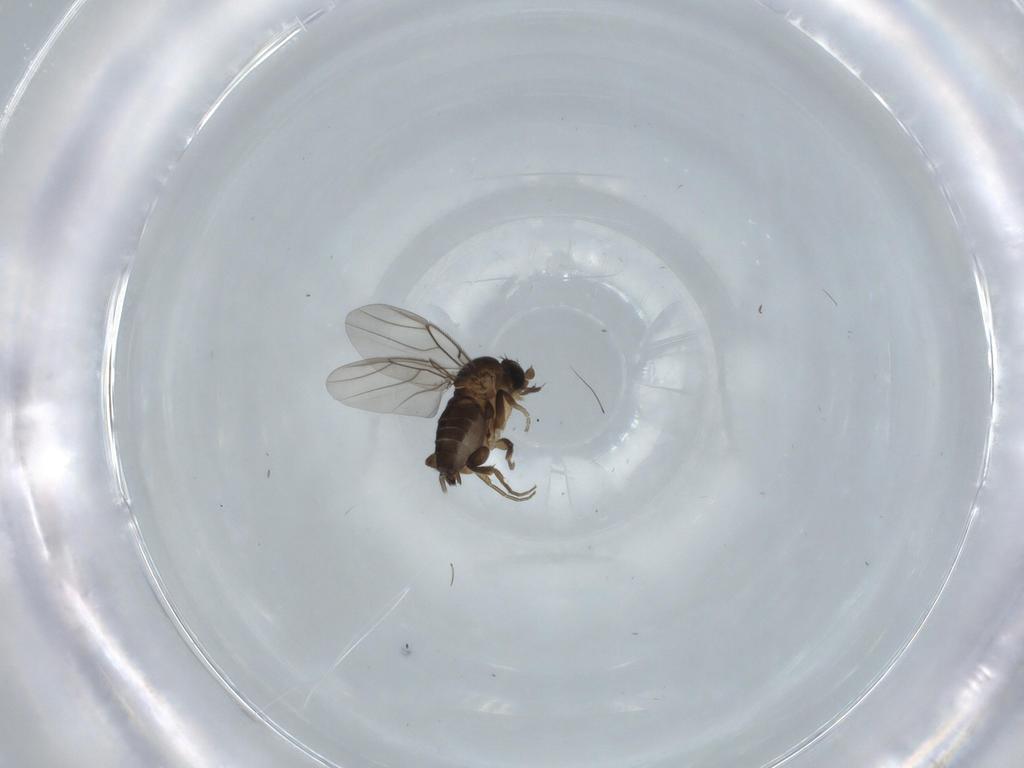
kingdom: Animalia
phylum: Arthropoda
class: Insecta
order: Diptera
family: Phoridae
